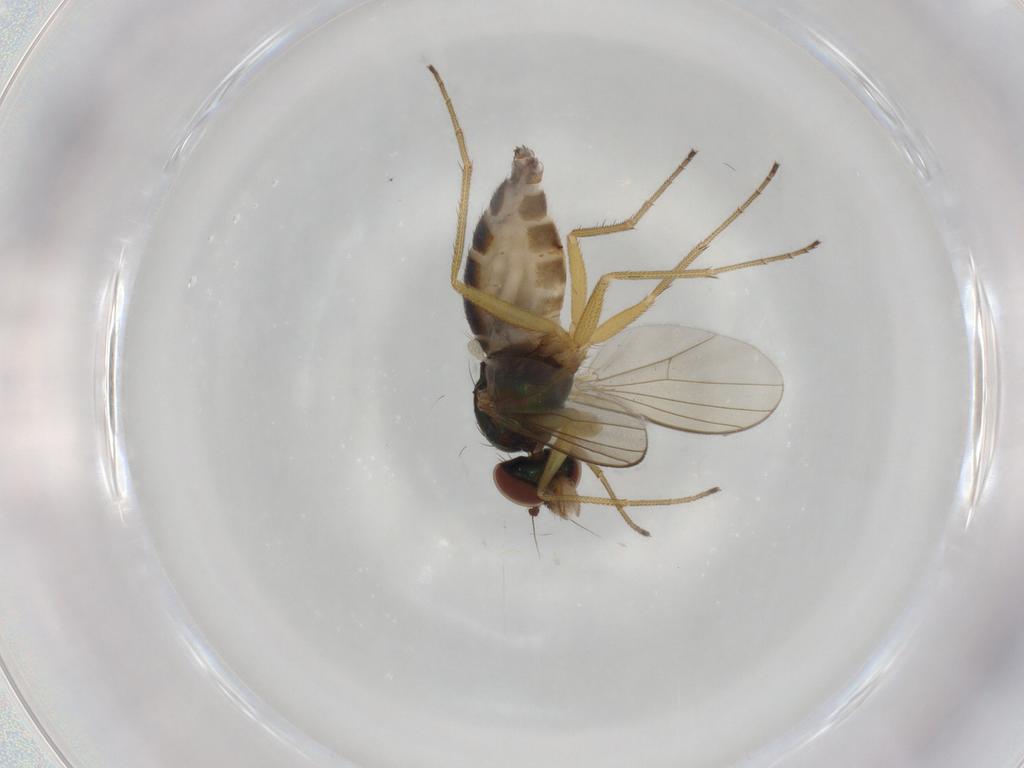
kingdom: Animalia
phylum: Arthropoda
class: Insecta
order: Diptera
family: Dolichopodidae
